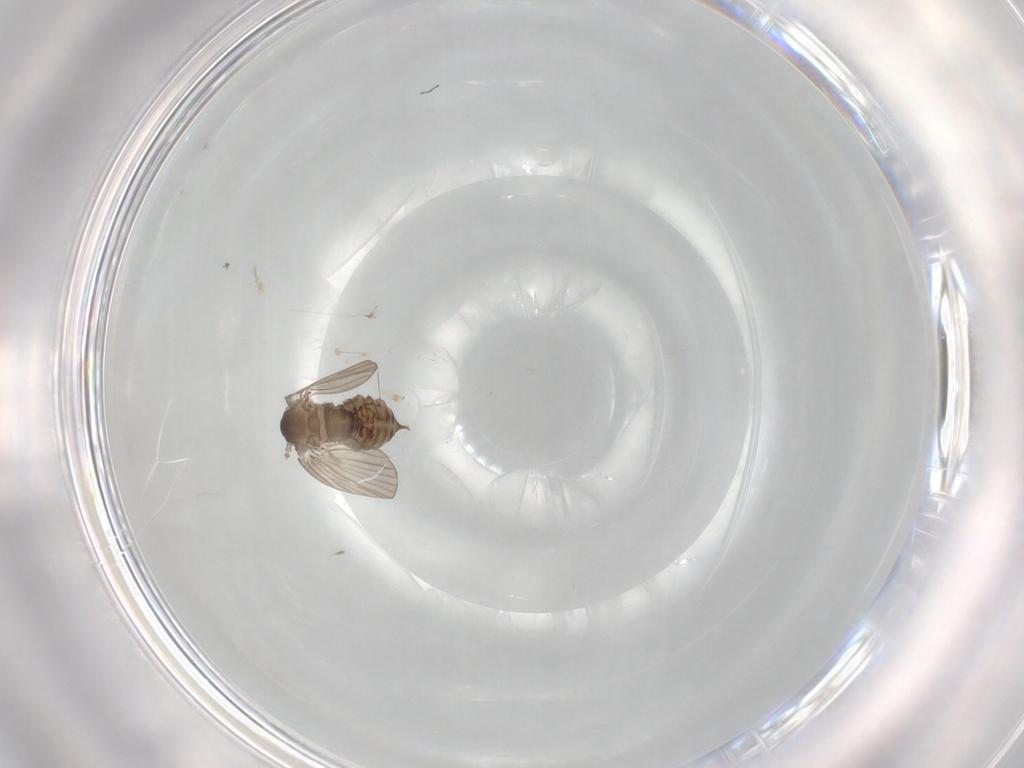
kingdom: Animalia
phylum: Arthropoda
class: Insecta
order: Diptera
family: Psychodidae
